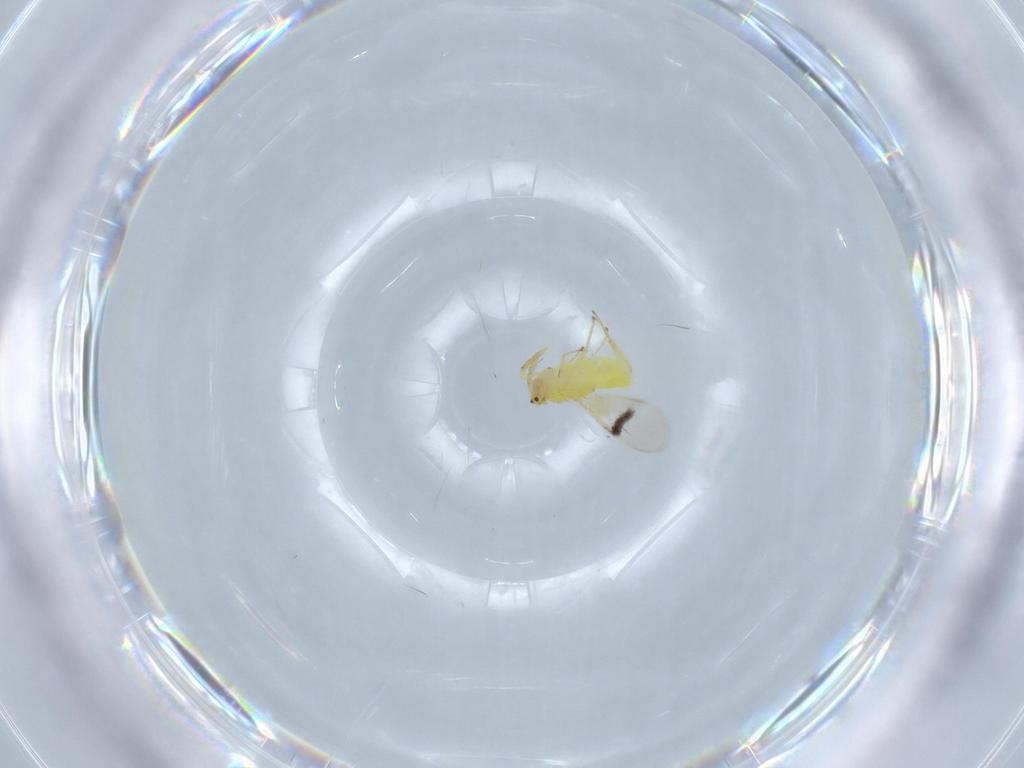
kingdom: Animalia
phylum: Arthropoda
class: Insecta
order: Hymenoptera
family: Aphelinidae
